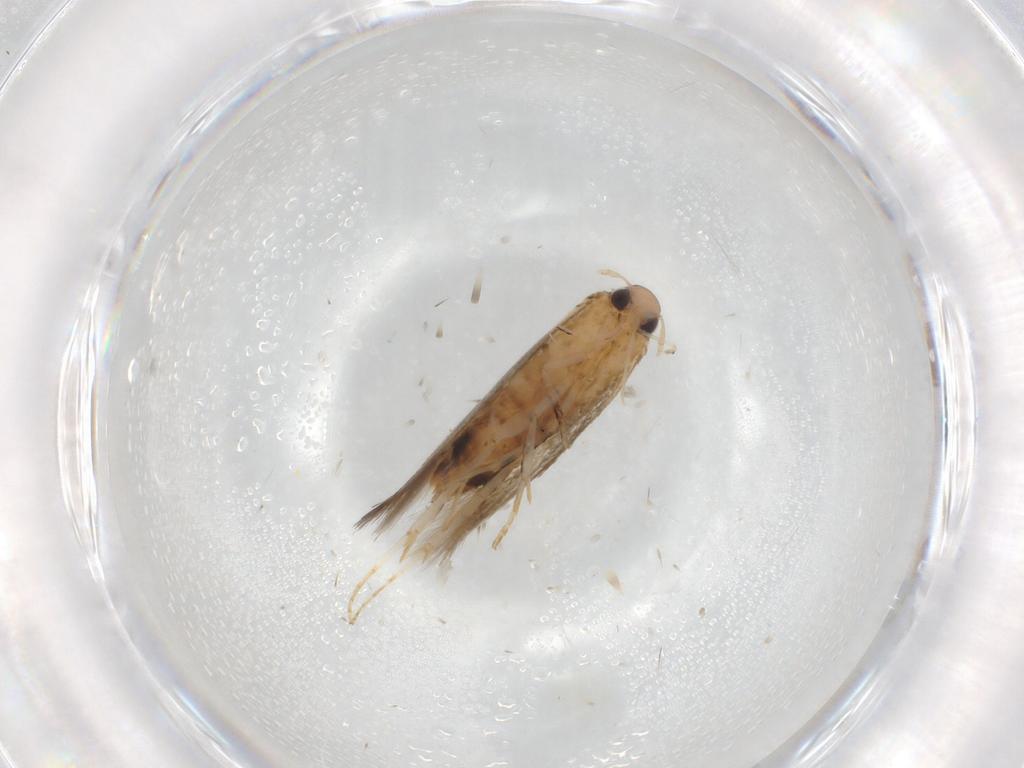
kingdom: Animalia
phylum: Arthropoda
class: Insecta
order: Lepidoptera
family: Cosmopterigidae
